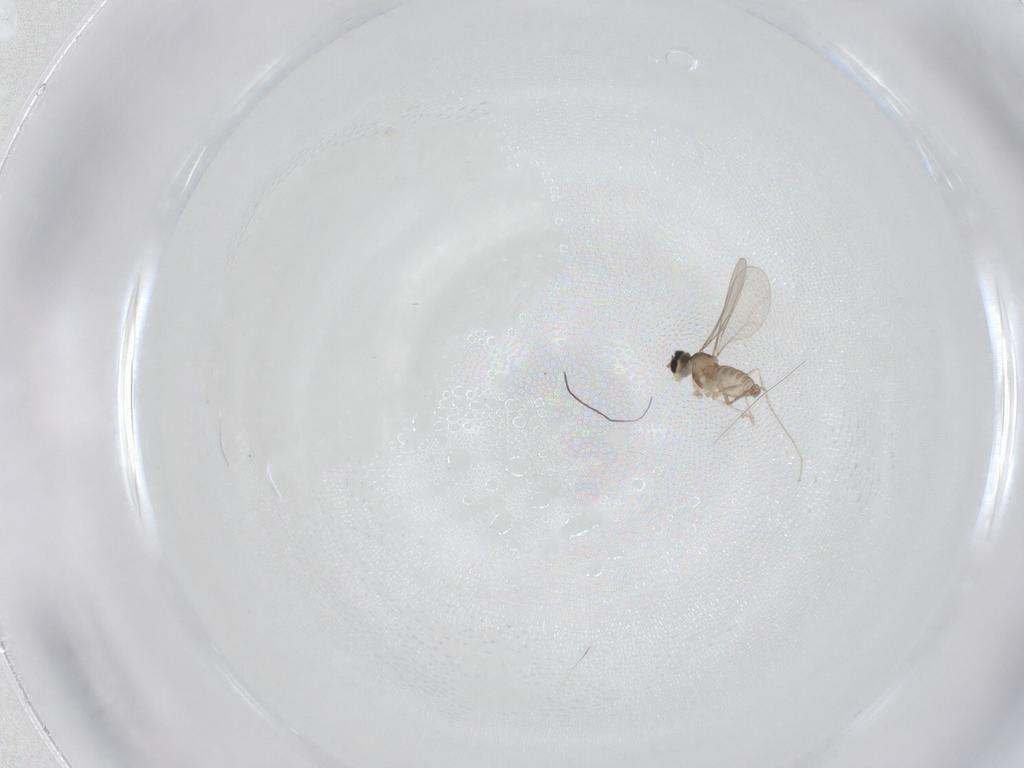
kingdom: Animalia
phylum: Arthropoda
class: Insecta
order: Diptera
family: Cecidomyiidae
